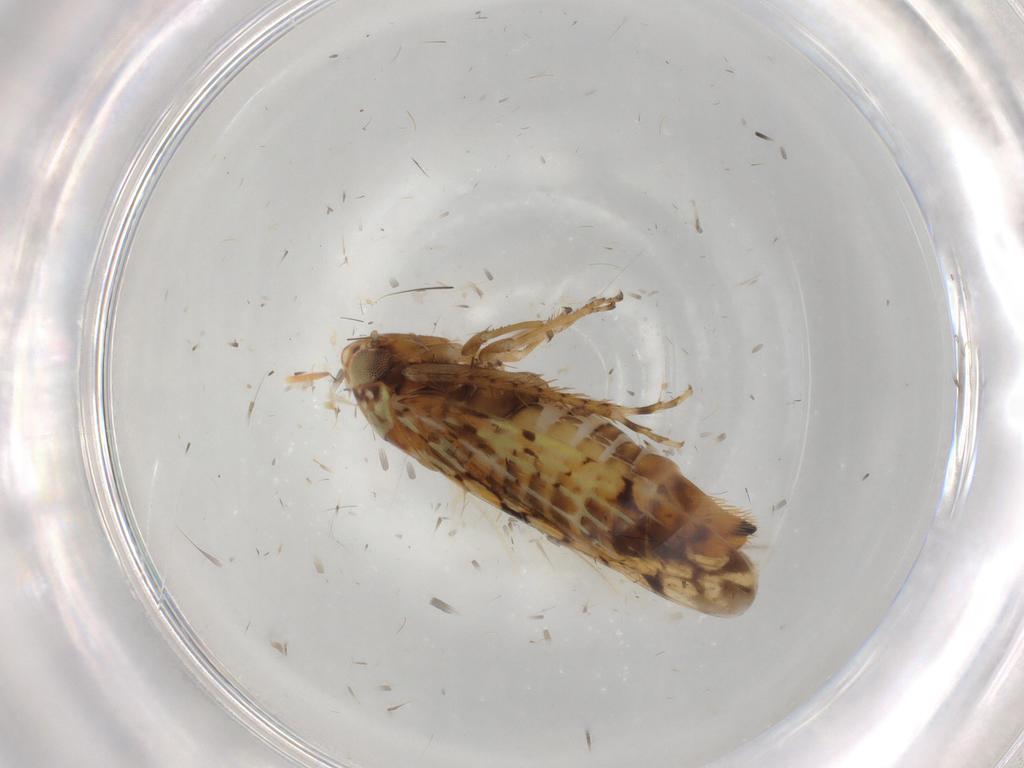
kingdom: Animalia
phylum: Arthropoda
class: Insecta
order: Hemiptera
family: Cicadellidae
